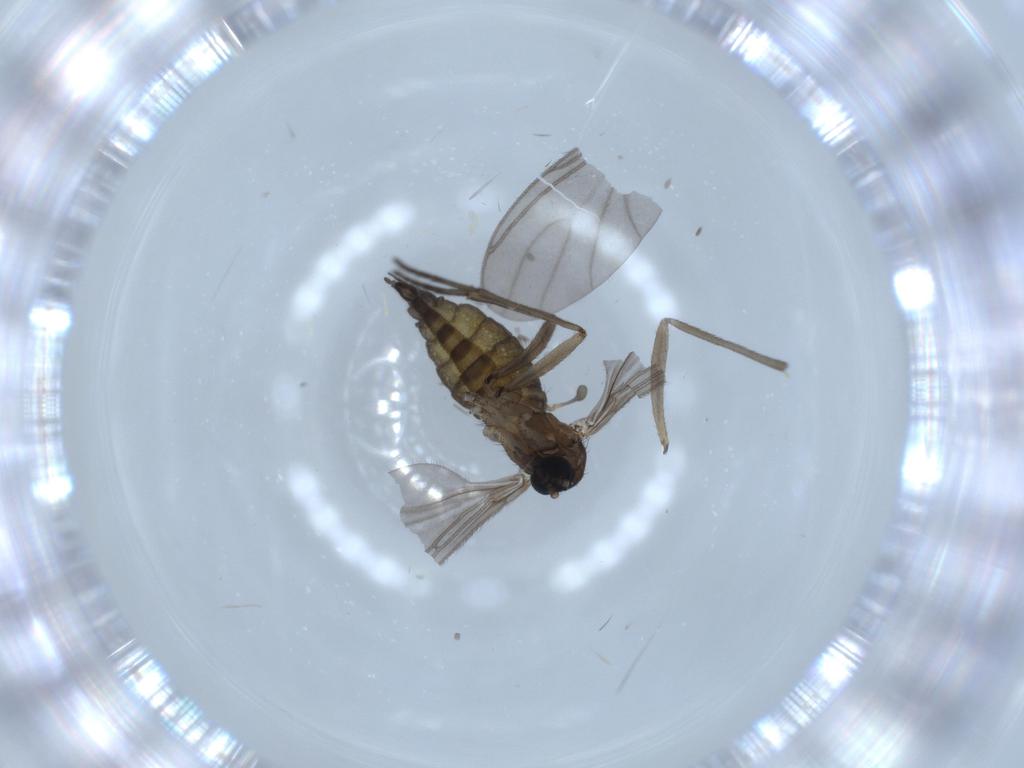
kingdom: Animalia
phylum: Arthropoda
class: Insecta
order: Diptera
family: Sciaridae
